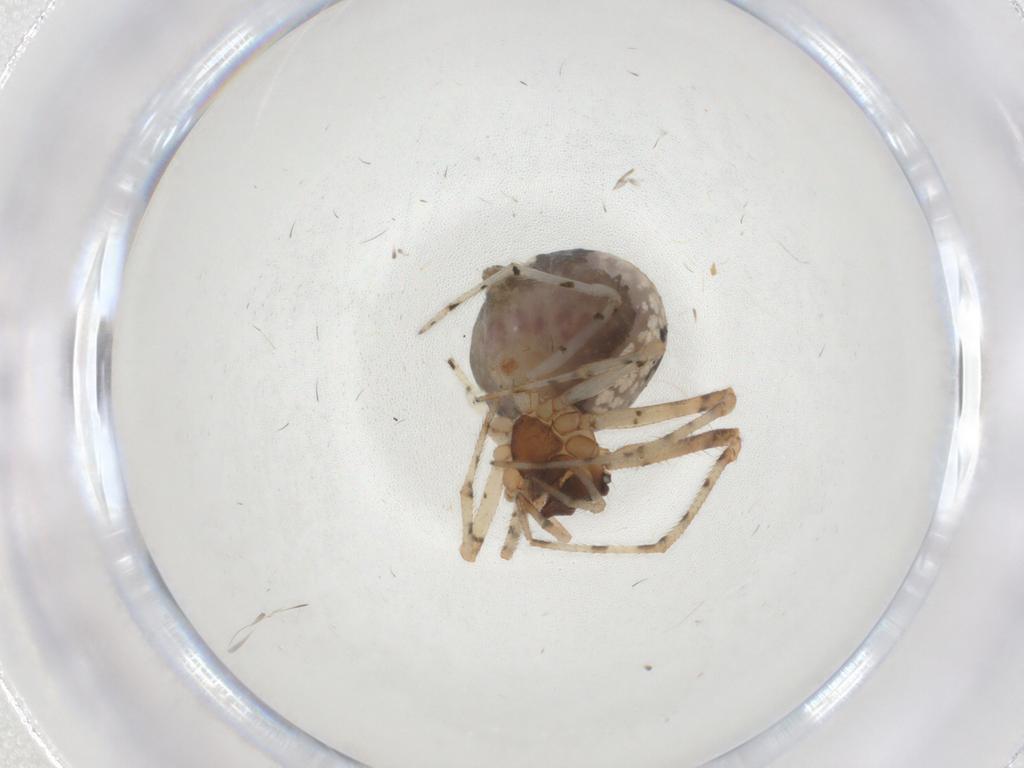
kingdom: Animalia
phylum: Arthropoda
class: Arachnida
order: Araneae
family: Theridiidae
